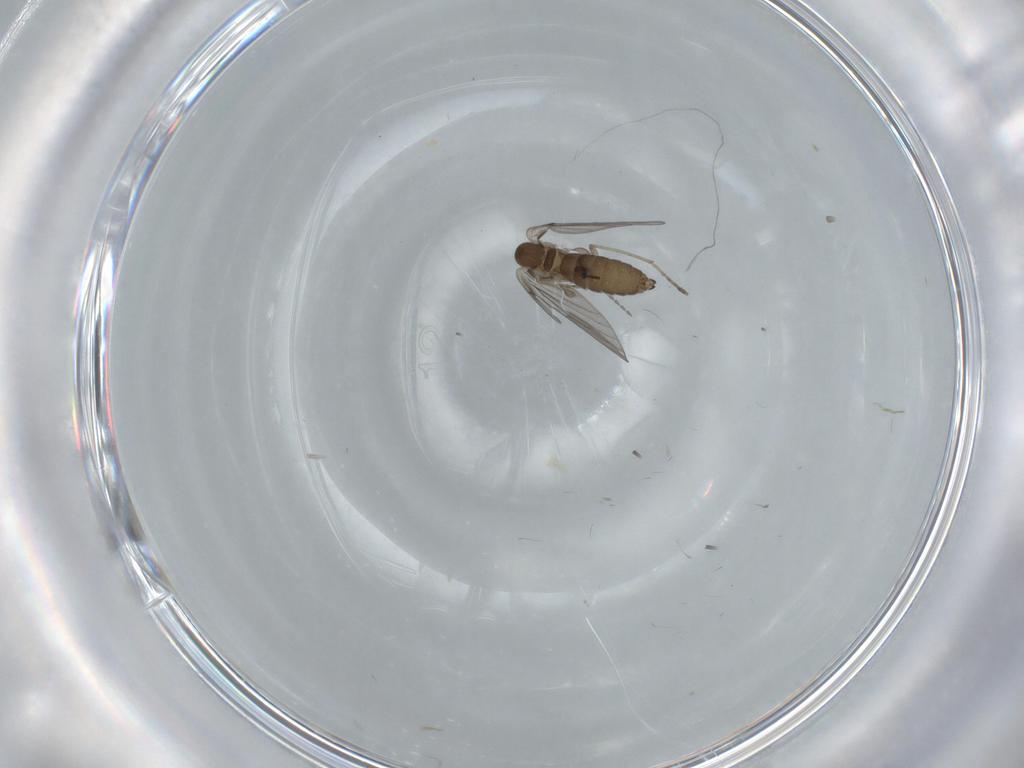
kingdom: Animalia
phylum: Arthropoda
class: Insecta
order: Diptera
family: Psychodidae
